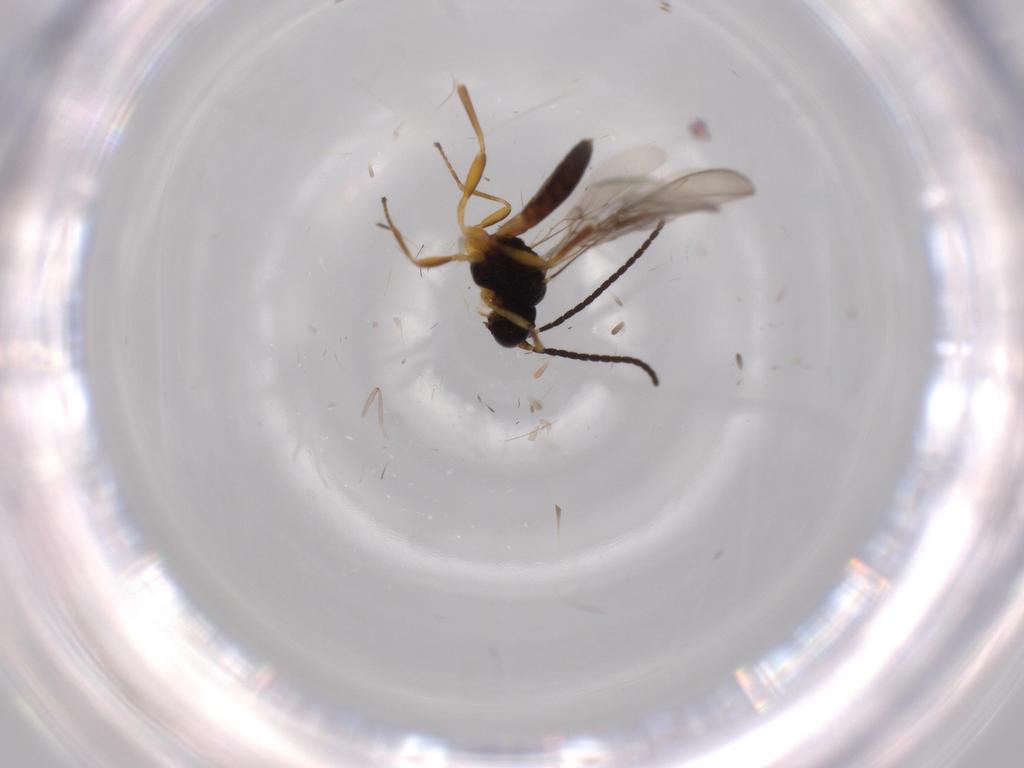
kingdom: Animalia
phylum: Arthropoda
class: Insecta
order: Hymenoptera
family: Braconidae
